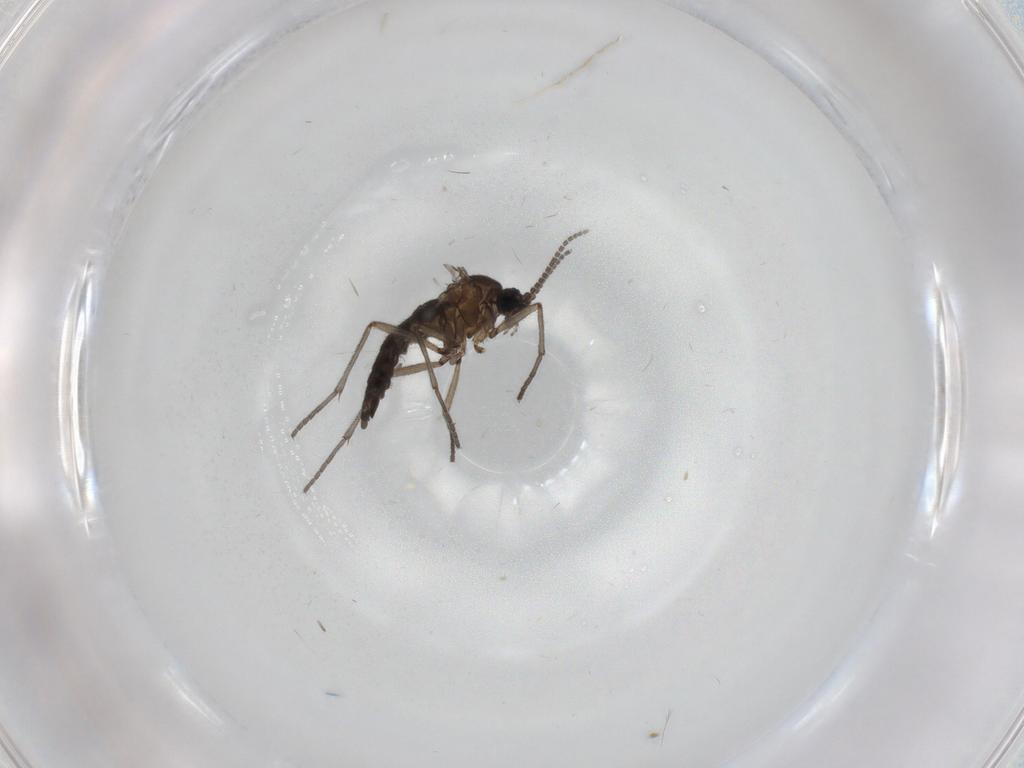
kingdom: Animalia
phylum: Arthropoda
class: Insecta
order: Diptera
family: Sciaridae
